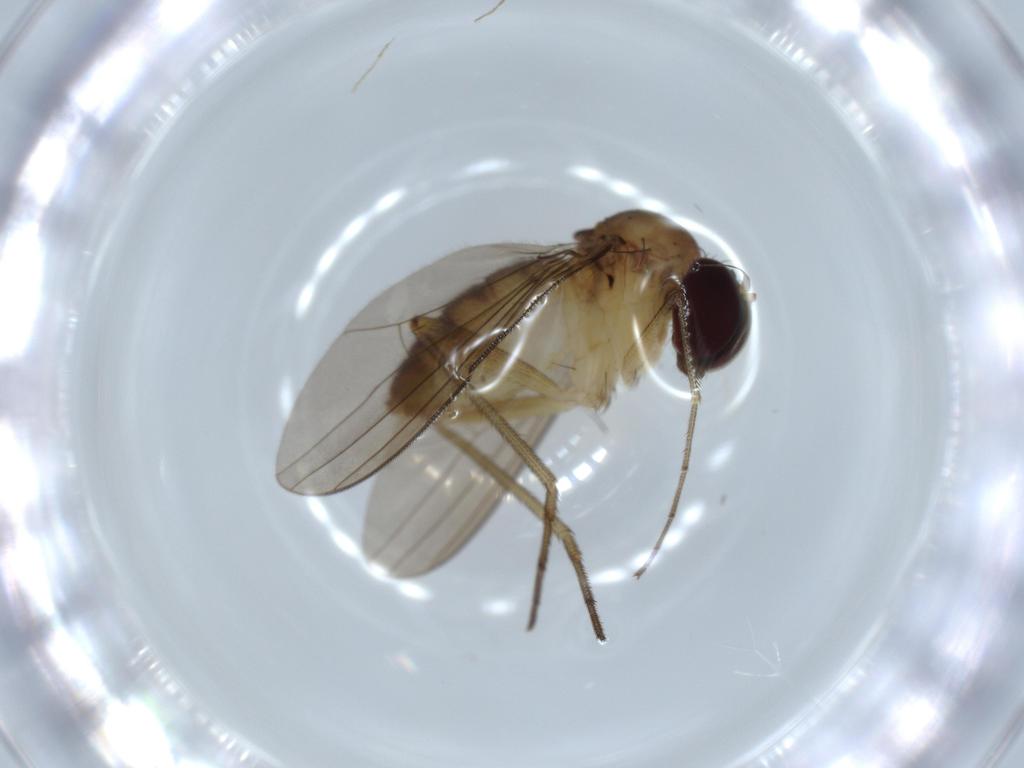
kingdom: Animalia
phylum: Arthropoda
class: Insecta
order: Diptera
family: Dolichopodidae
